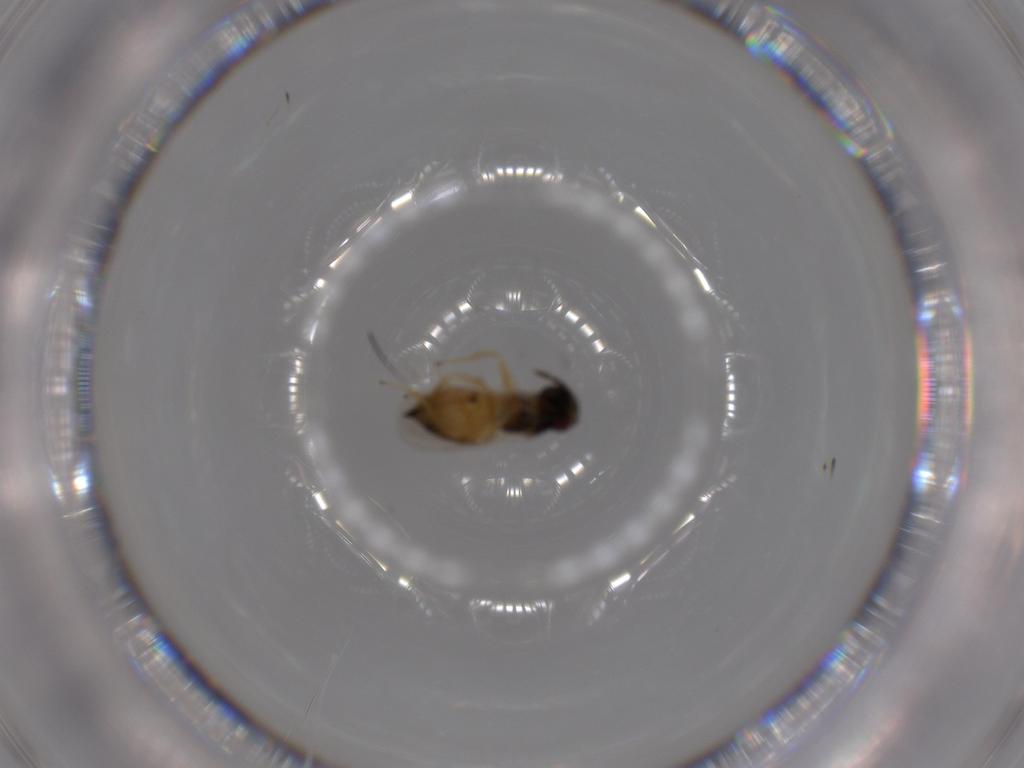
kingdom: Animalia
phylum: Arthropoda
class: Insecta
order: Hymenoptera
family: Eulophidae
